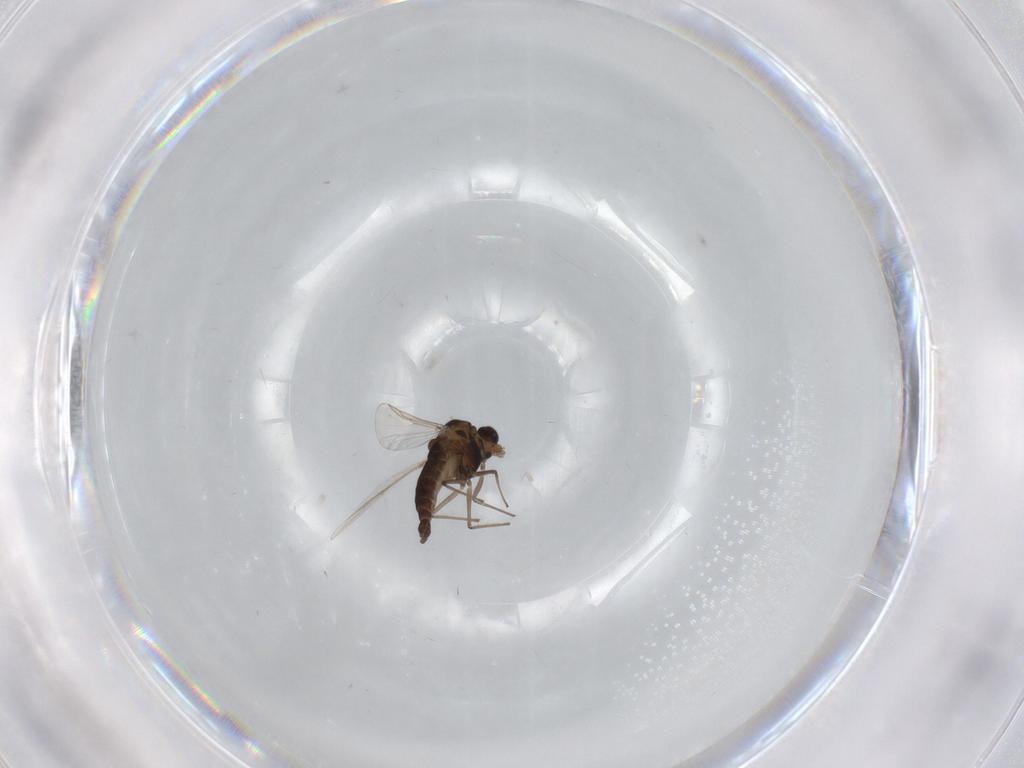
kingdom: Animalia
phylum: Arthropoda
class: Insecta
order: Diptera
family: Chironomidae
